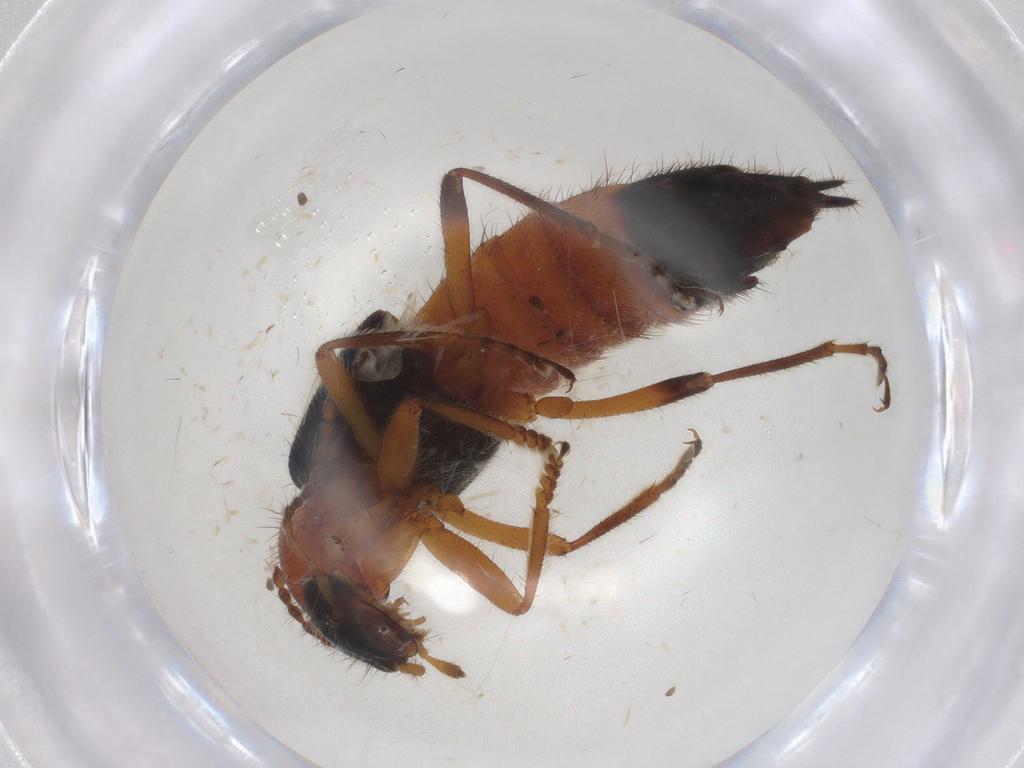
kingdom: Animalia
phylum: Arthropoda
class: Insecta
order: Coleoptera
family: Staphylinidae
